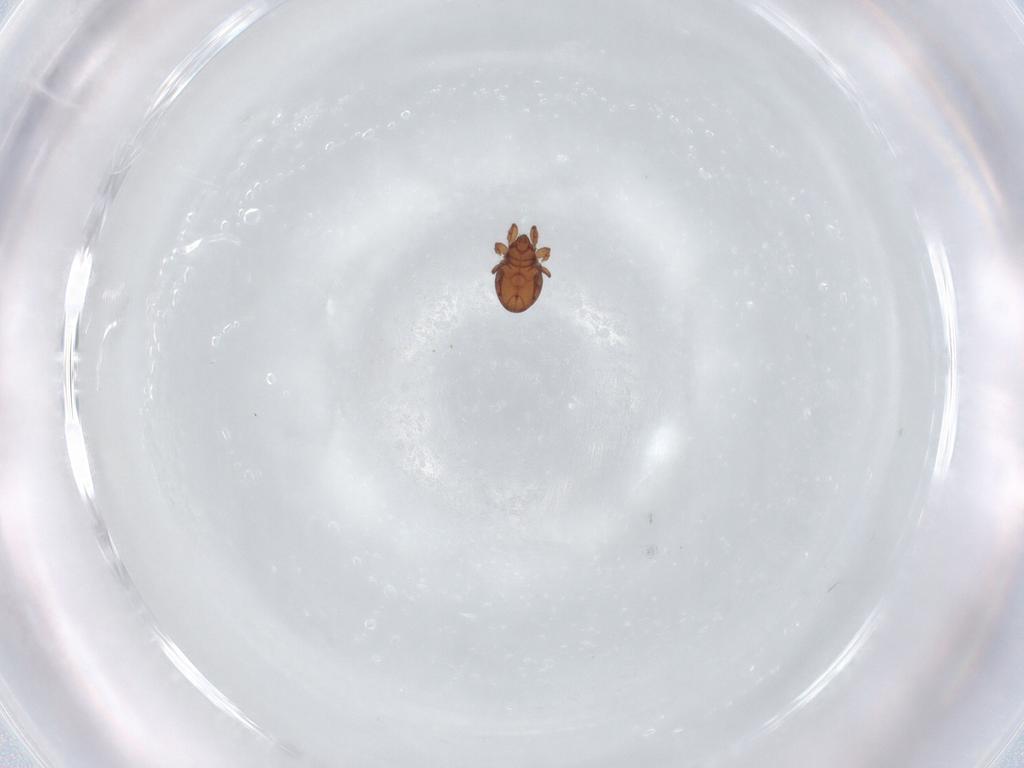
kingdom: Animalia
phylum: Arthropoda
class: Arachnida
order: Sarcoptiformes
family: Eremaeidae
